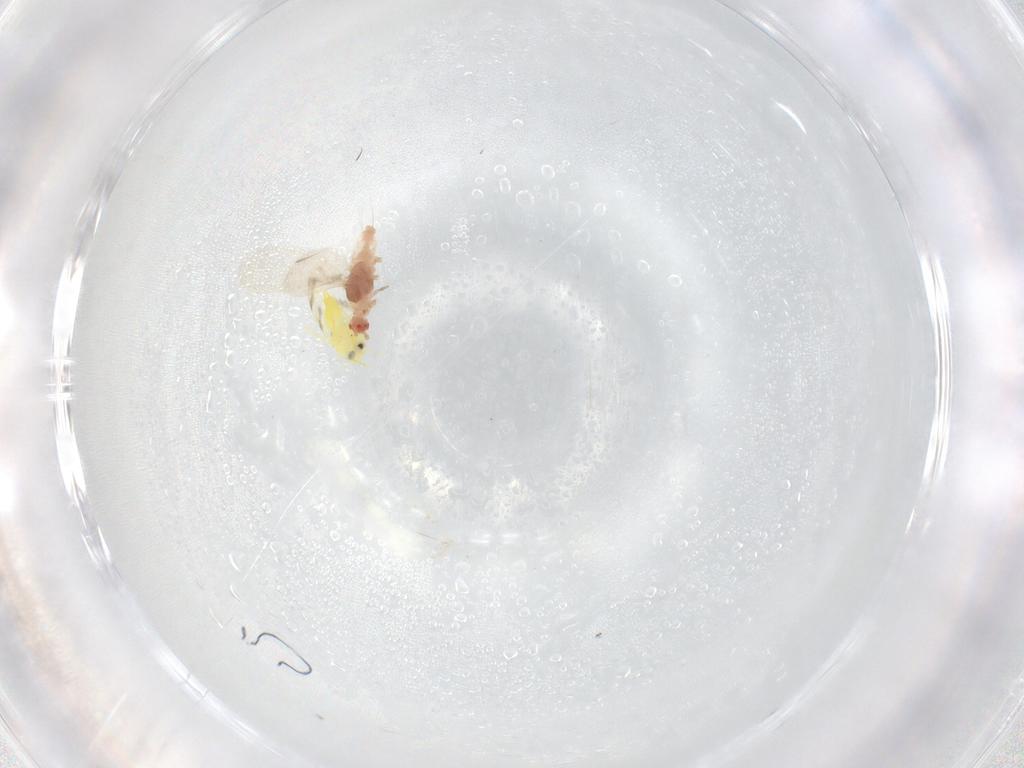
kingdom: Animalia
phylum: Arthropoda
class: Insecta
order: Hemiptera
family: Aleyrodidae
